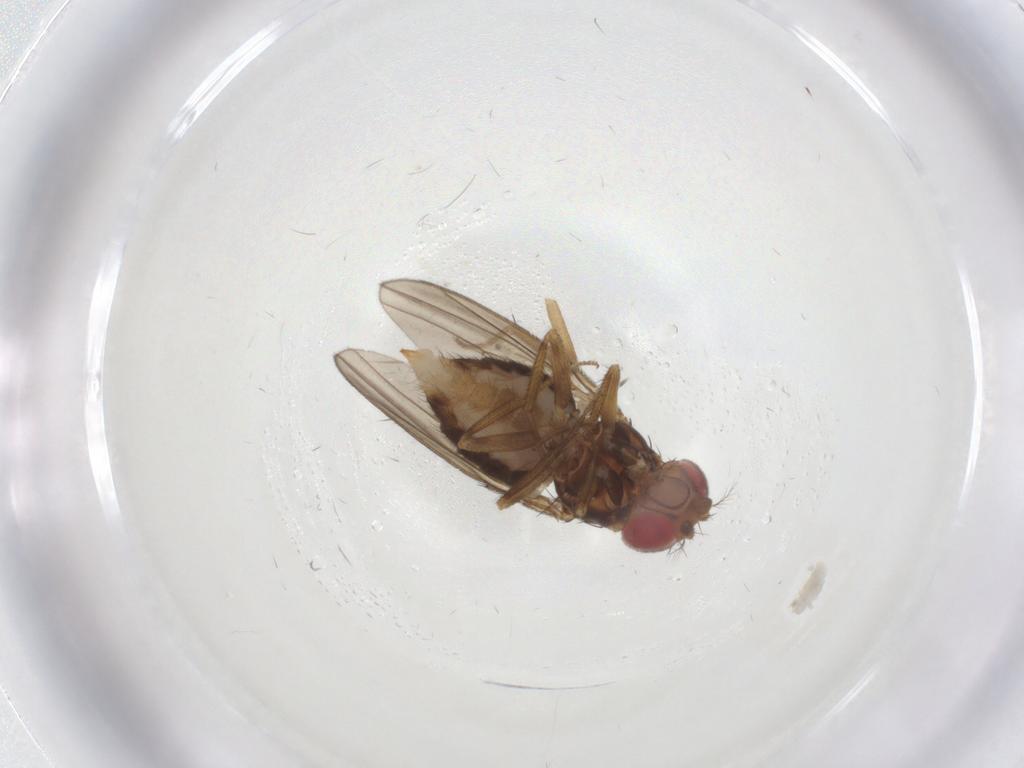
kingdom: Animalia
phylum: Arthropoda
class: Insecta
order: Diptera
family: Drosophilidae
